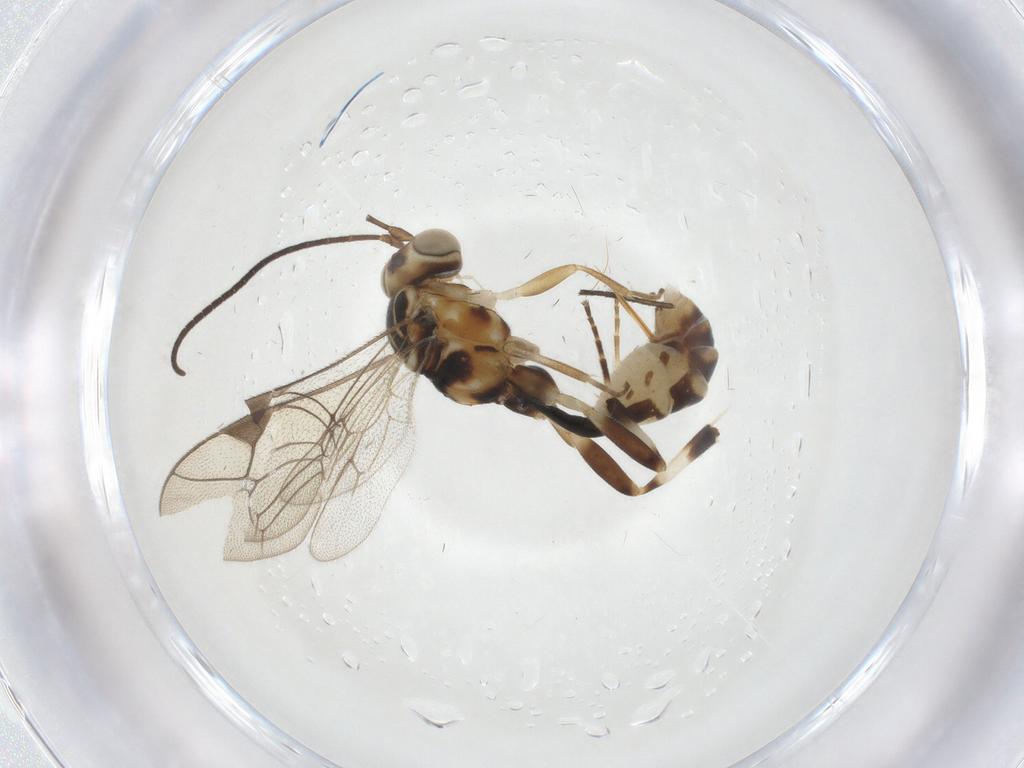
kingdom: Animalia
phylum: Arthropoda
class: Insecta
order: Hymenoptera
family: Ichneumonidae
